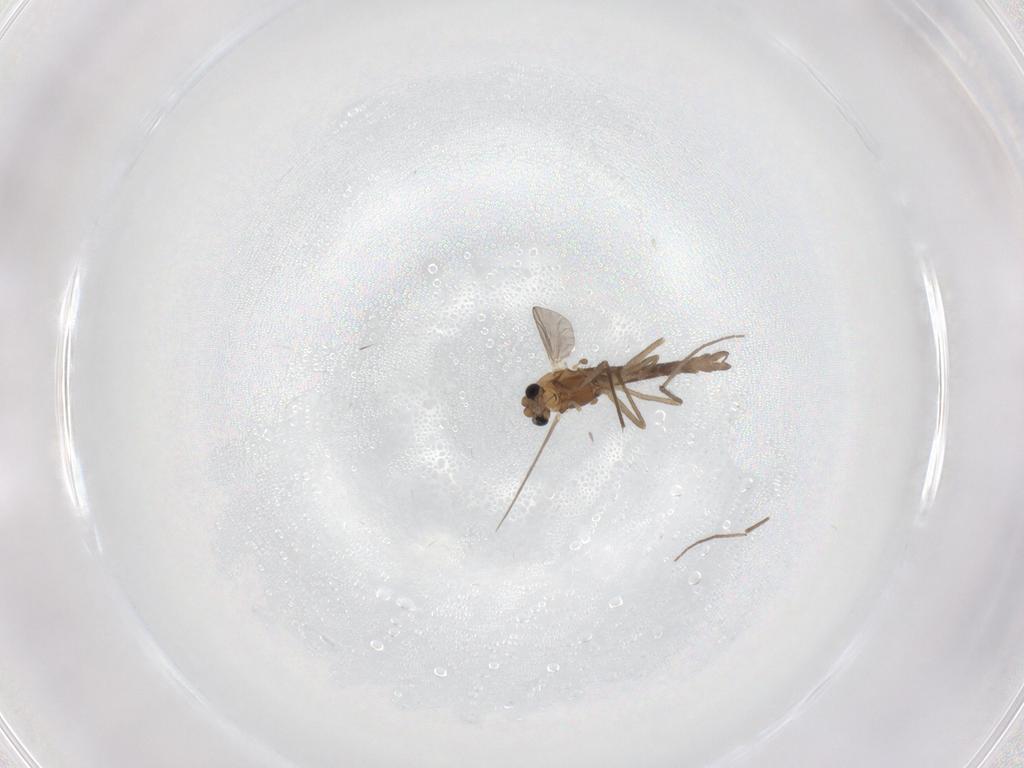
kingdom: Animalia
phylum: Arthropoda
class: Insecta
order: Diptera
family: Chironomidae
